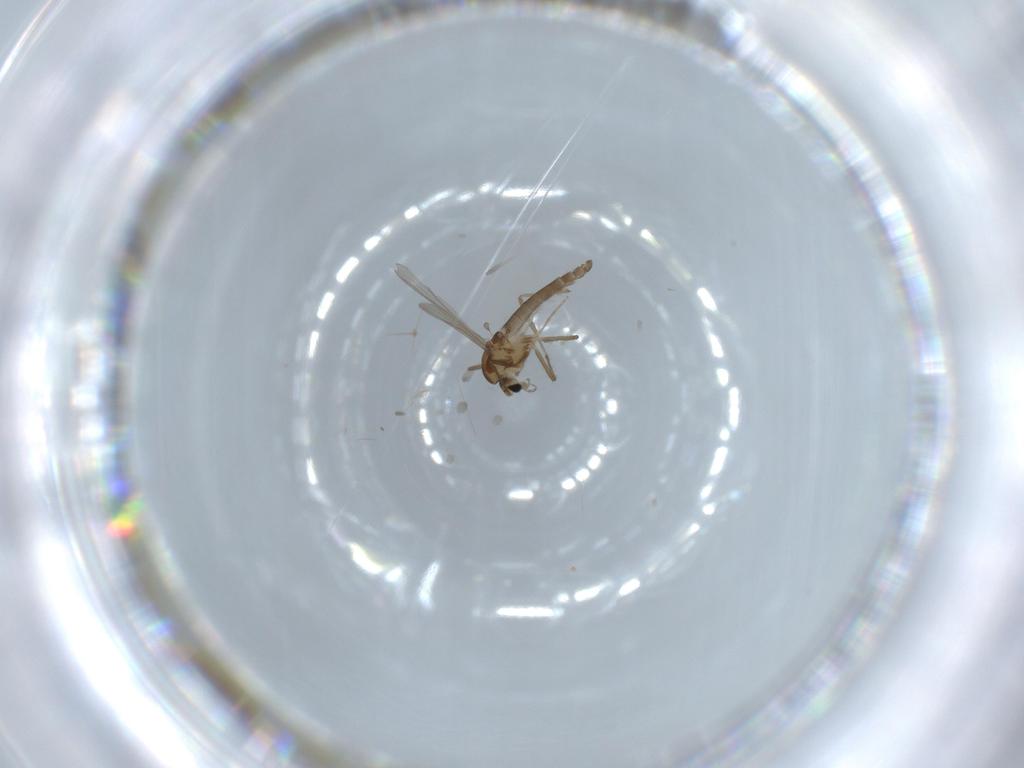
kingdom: Animalia
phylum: Arthropoda
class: Insecta
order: Diptera
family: Chironomidae
